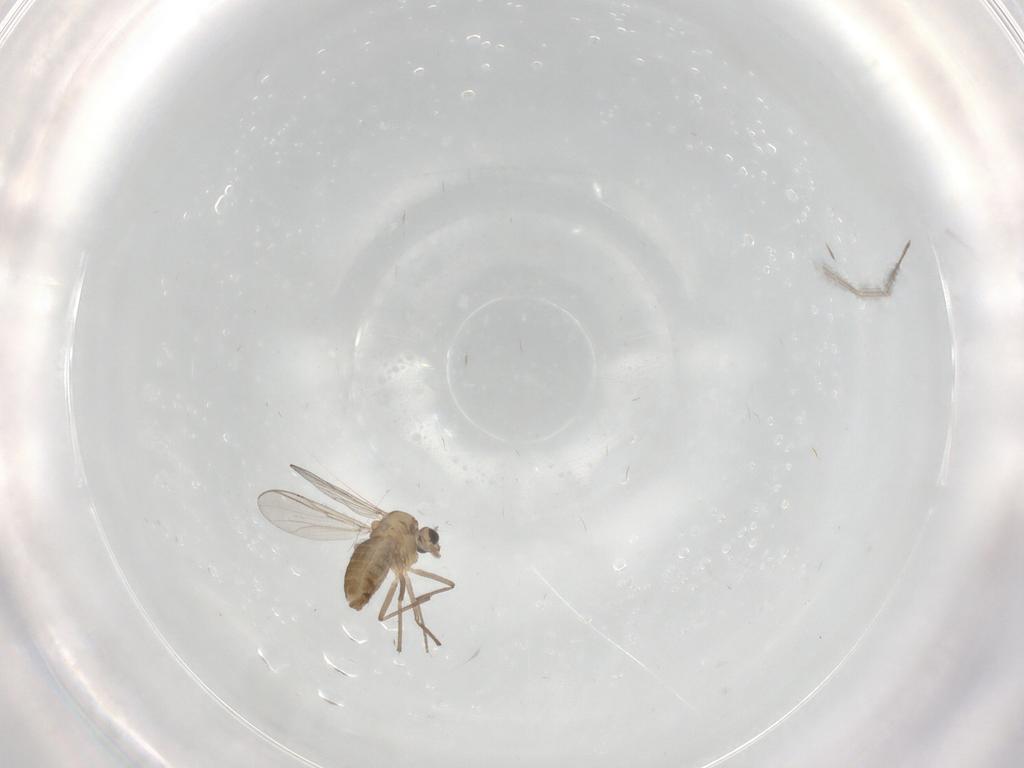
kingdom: Animalia
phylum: Arthropoda
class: Insecta
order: Diptera
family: Chironomidae
